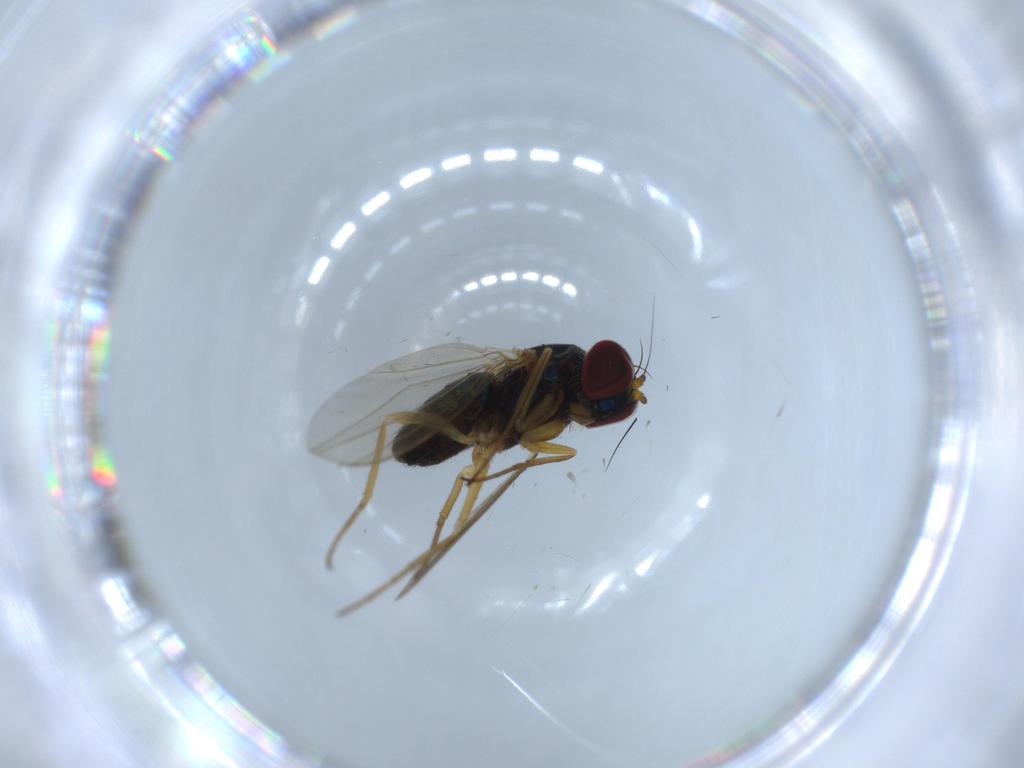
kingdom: Animalia
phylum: Arthropoda
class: Insecta
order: Diptera
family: Dolichopodidae
